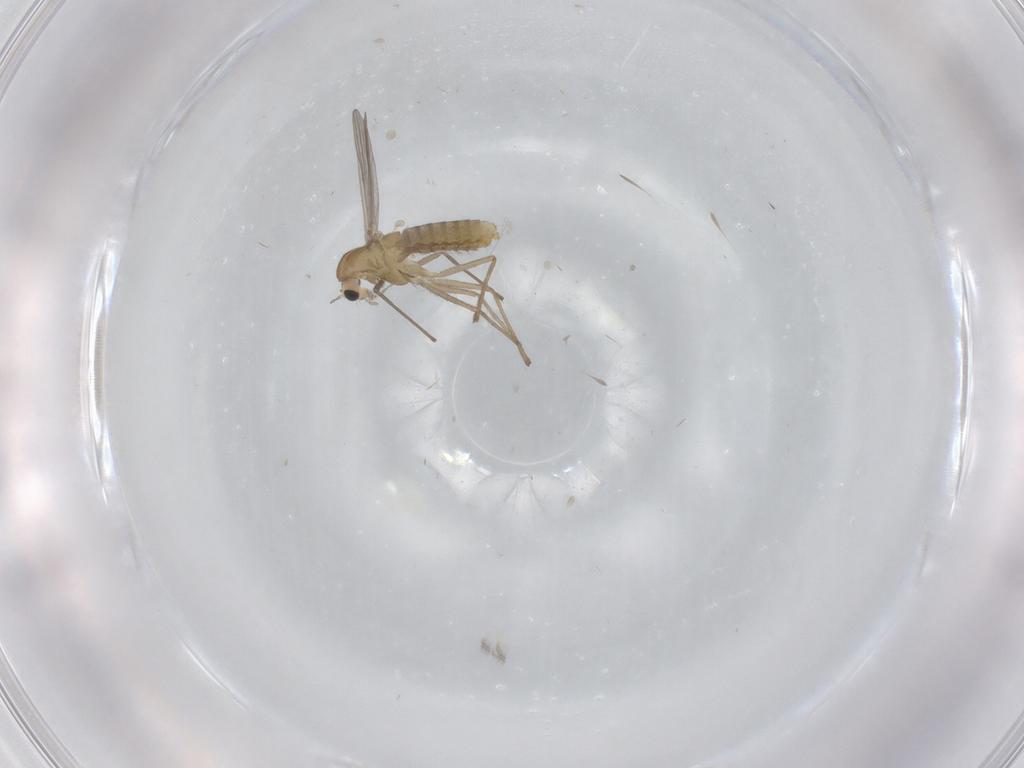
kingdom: Animalia
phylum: Arthropoda
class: Insecta
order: Diptera
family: Chironomidae
